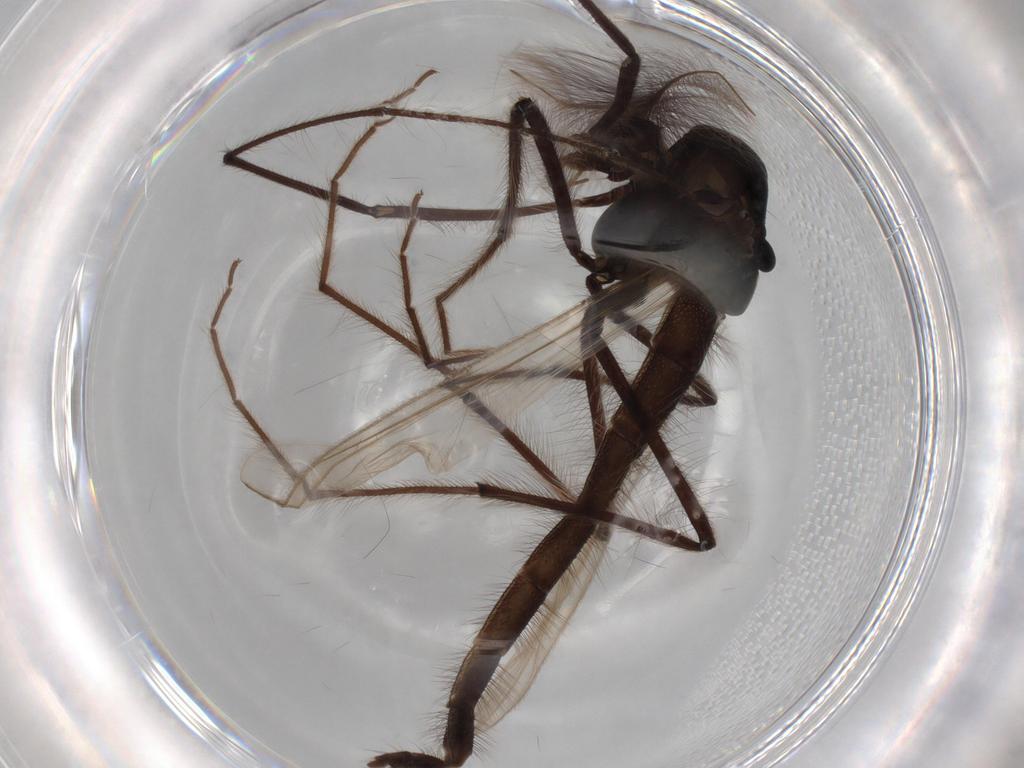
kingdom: Animalia
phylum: Arthropoda
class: Insecta
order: Diptera
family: Chironomidae
